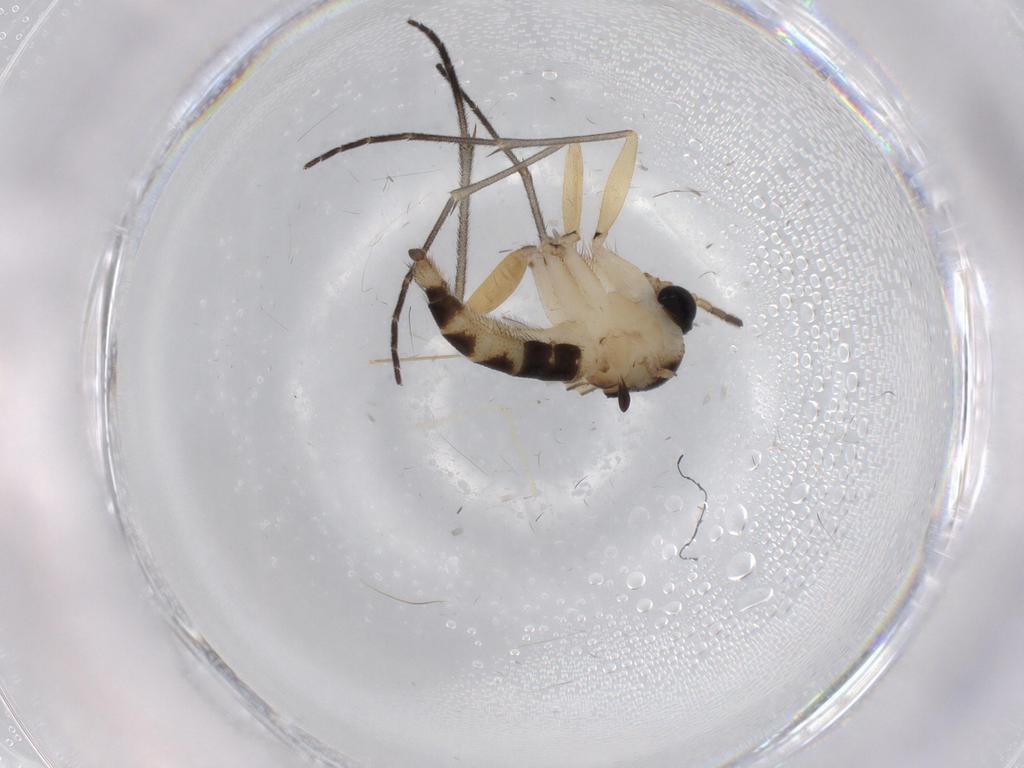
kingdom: Animalia
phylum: Arthropoda
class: Insecta
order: Diptera
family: Sciaridae
